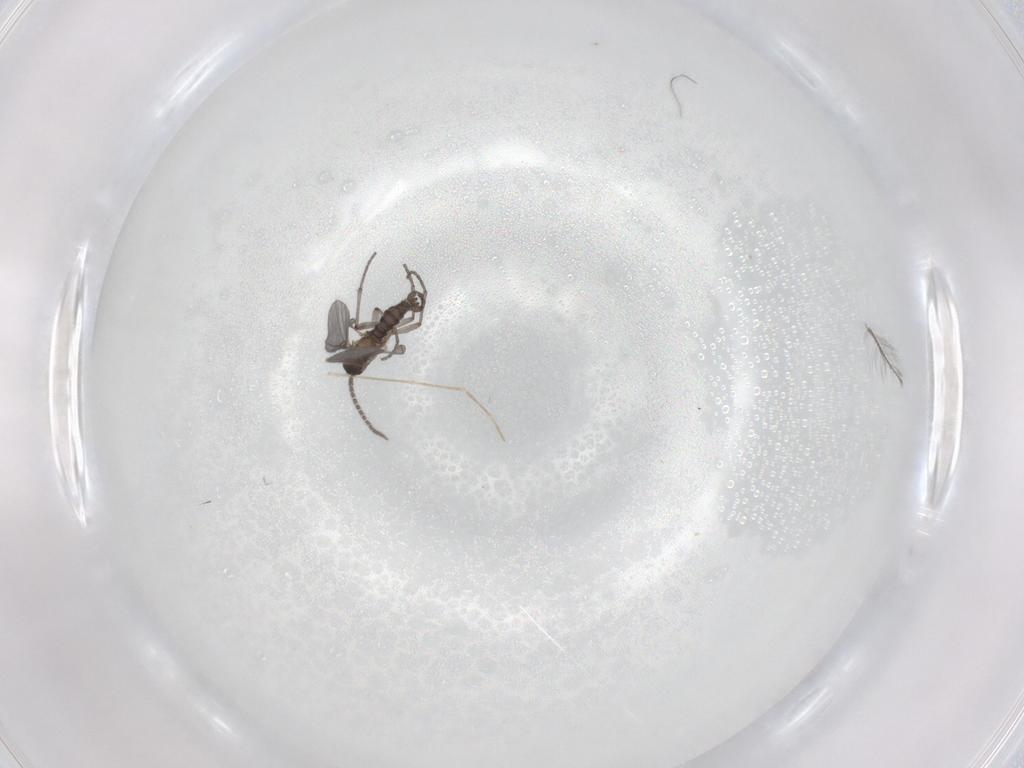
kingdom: Animalia
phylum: Arthropoda
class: Insecta
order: Diptera
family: Sciaridae
